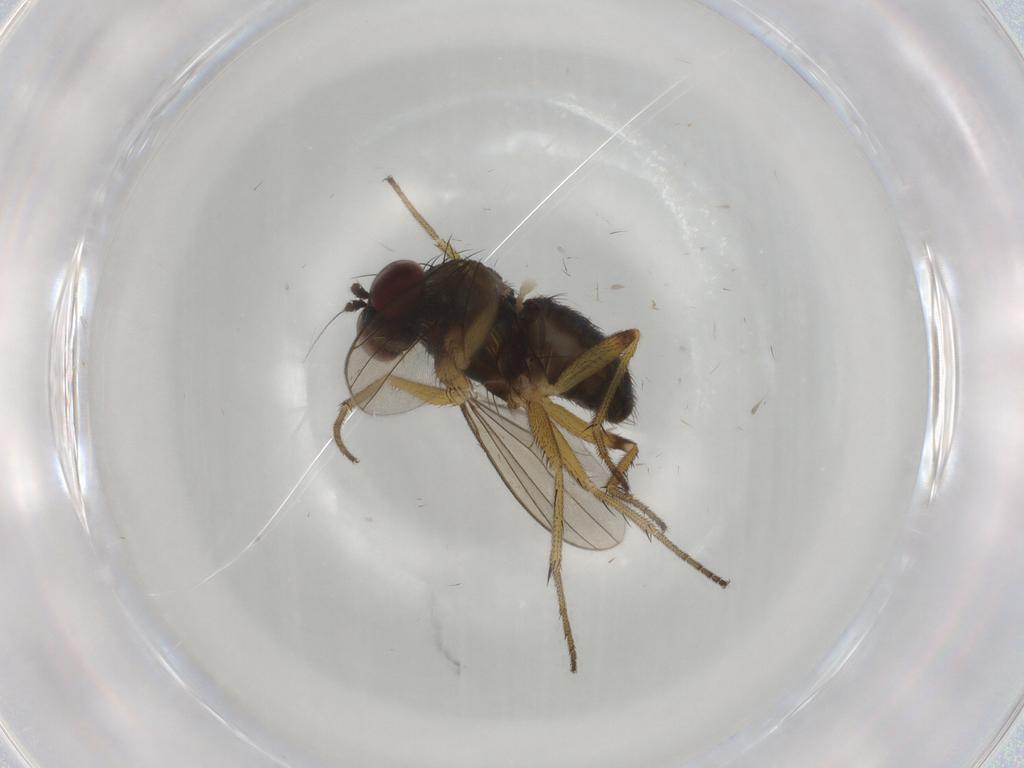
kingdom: Animalia
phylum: Arthropoda
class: Insecta
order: Diptera
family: Dolichopodidae
